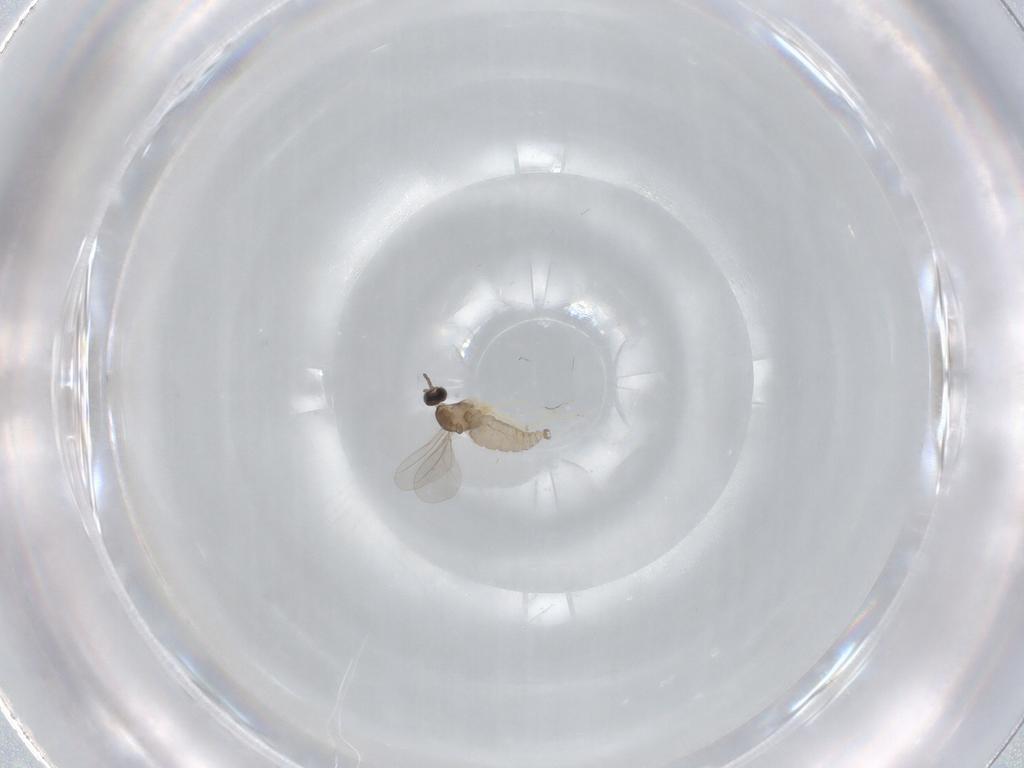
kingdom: Animalia
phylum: Arthropoda
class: Insecta
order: Diptera
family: Cecidomyiidae
